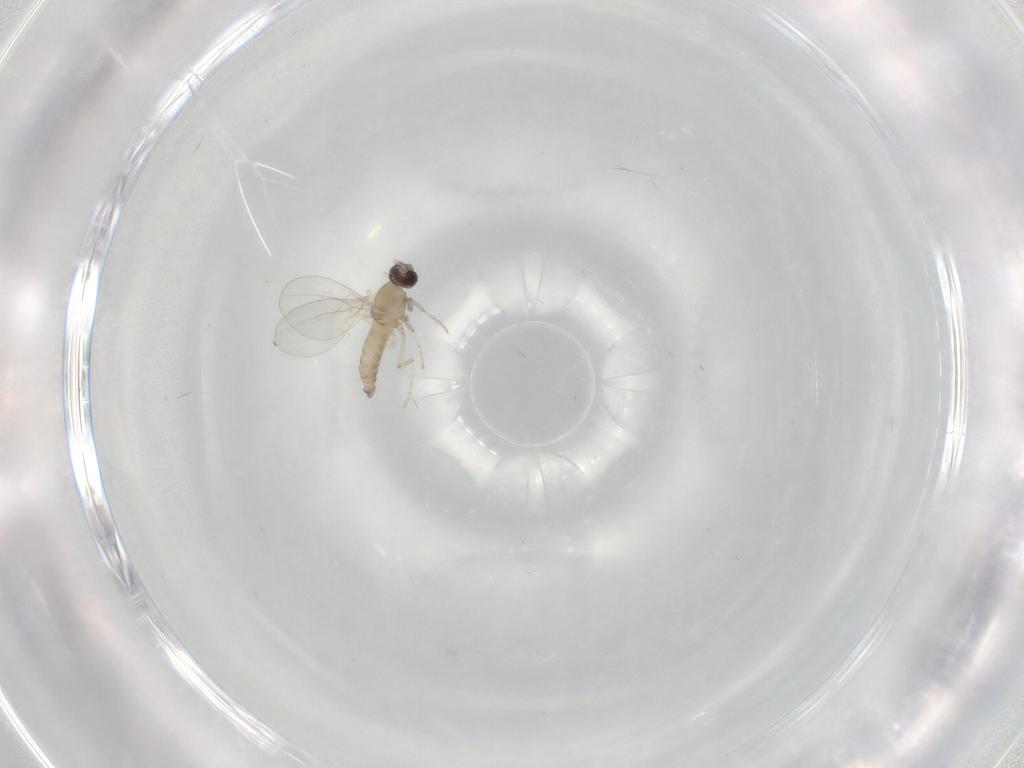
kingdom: Animalia
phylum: Arthropoda
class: Insecta
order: Diptera
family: Cecidomyiidae
